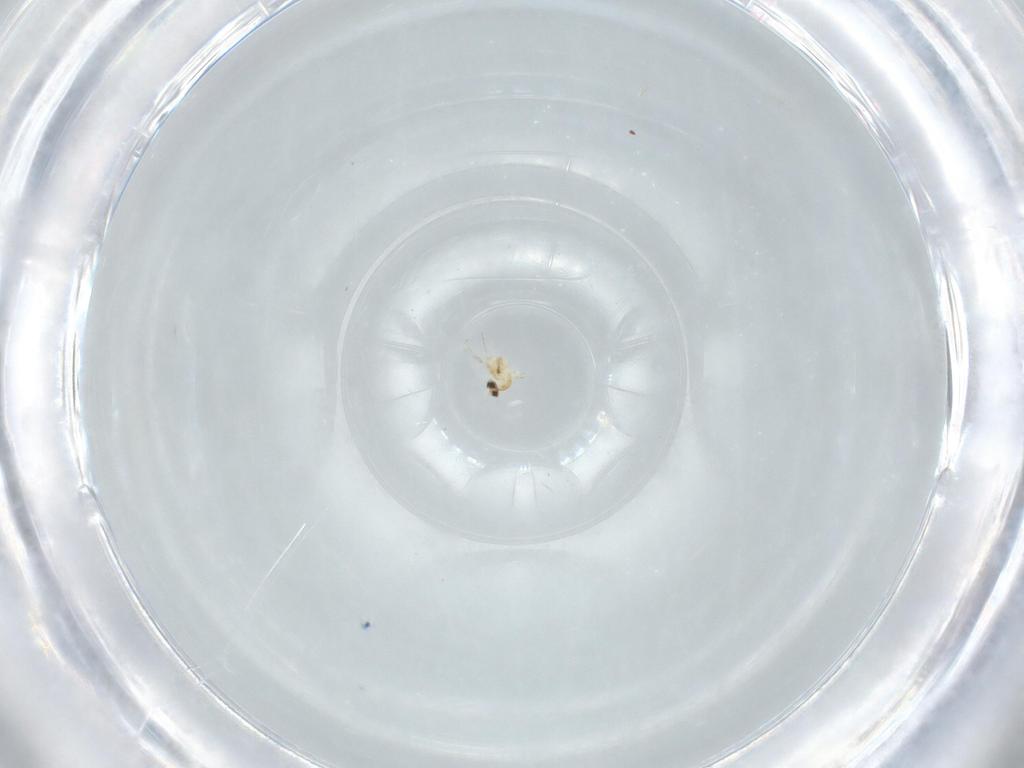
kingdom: Animalia
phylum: Arthropoda
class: Insecta
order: Diptera
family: Cecidomyiidae
